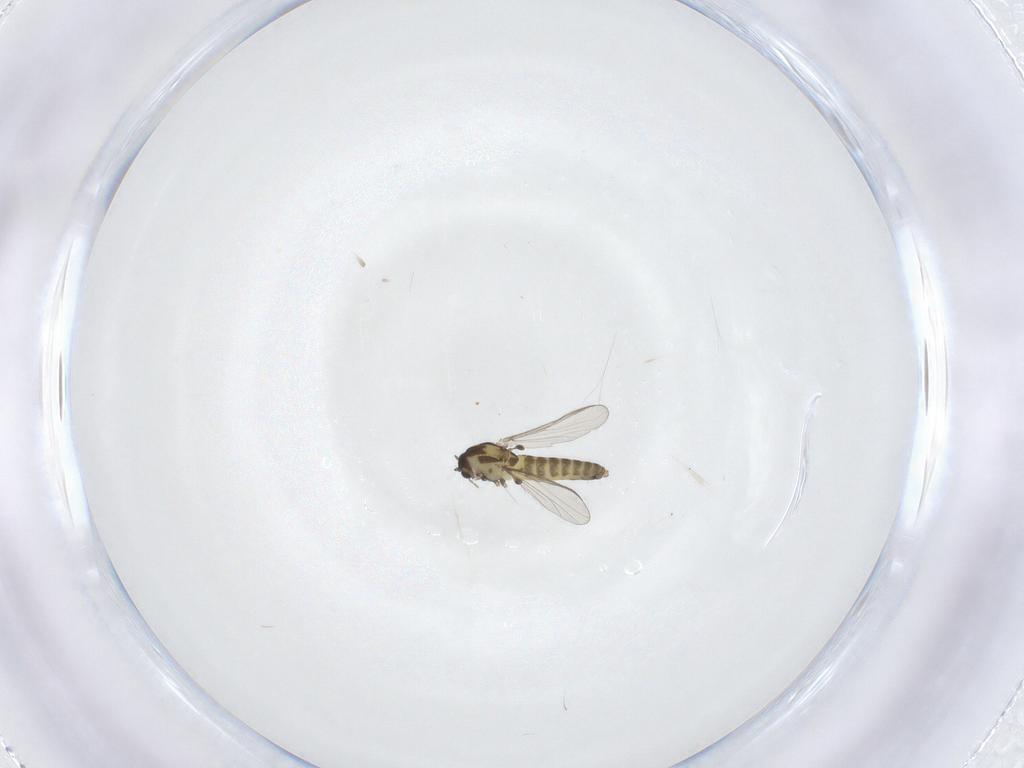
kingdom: Animalia
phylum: Arthropoda
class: Insecta
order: Diptera
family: Chironomidae
